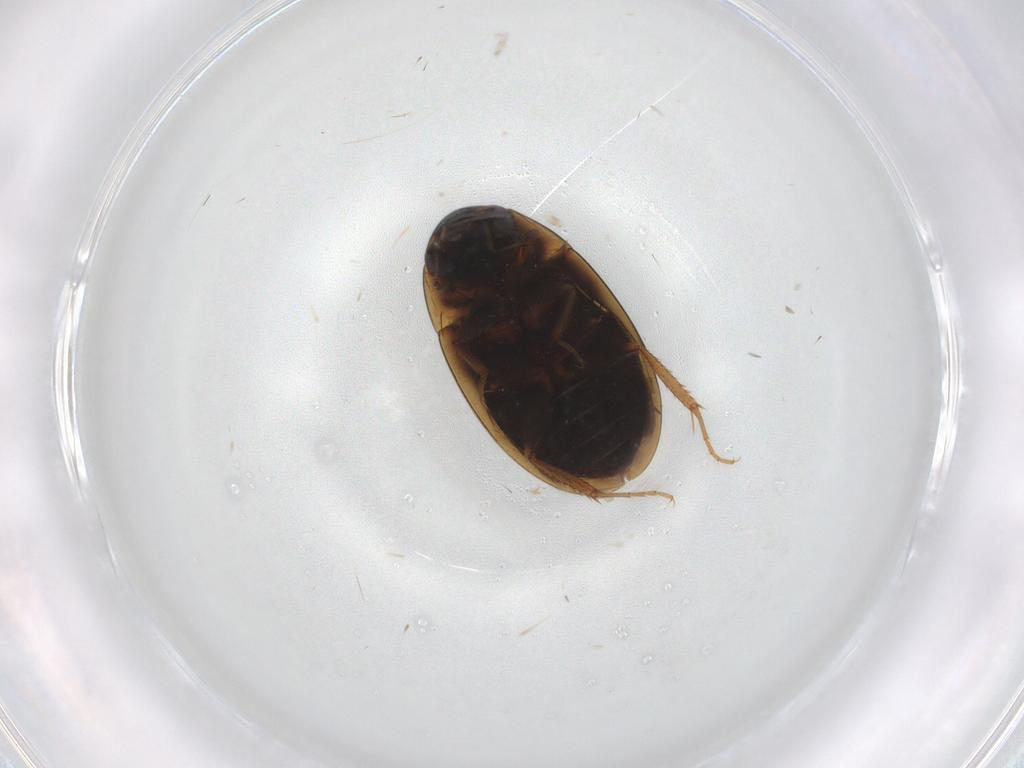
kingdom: Animalia
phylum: Arthropoda
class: Insecta
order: Coleoptera
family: Hydrophilidae
